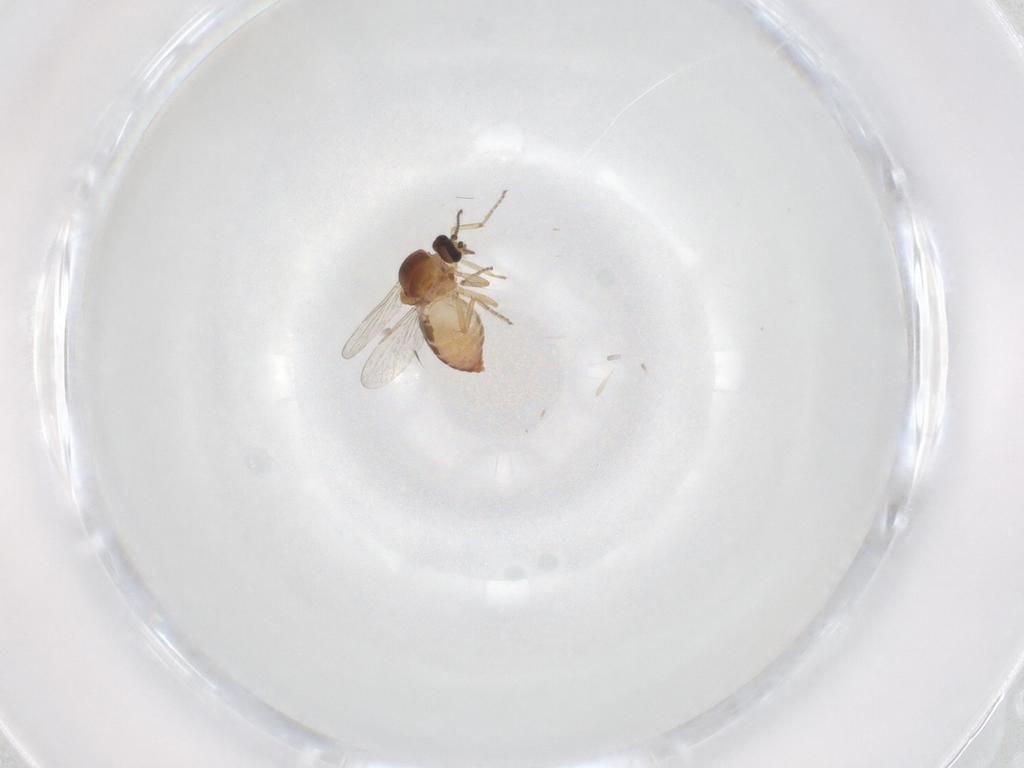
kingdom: Animalia
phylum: Arthropoda
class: Insecta
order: Diptera
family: Ceratopogonidae
